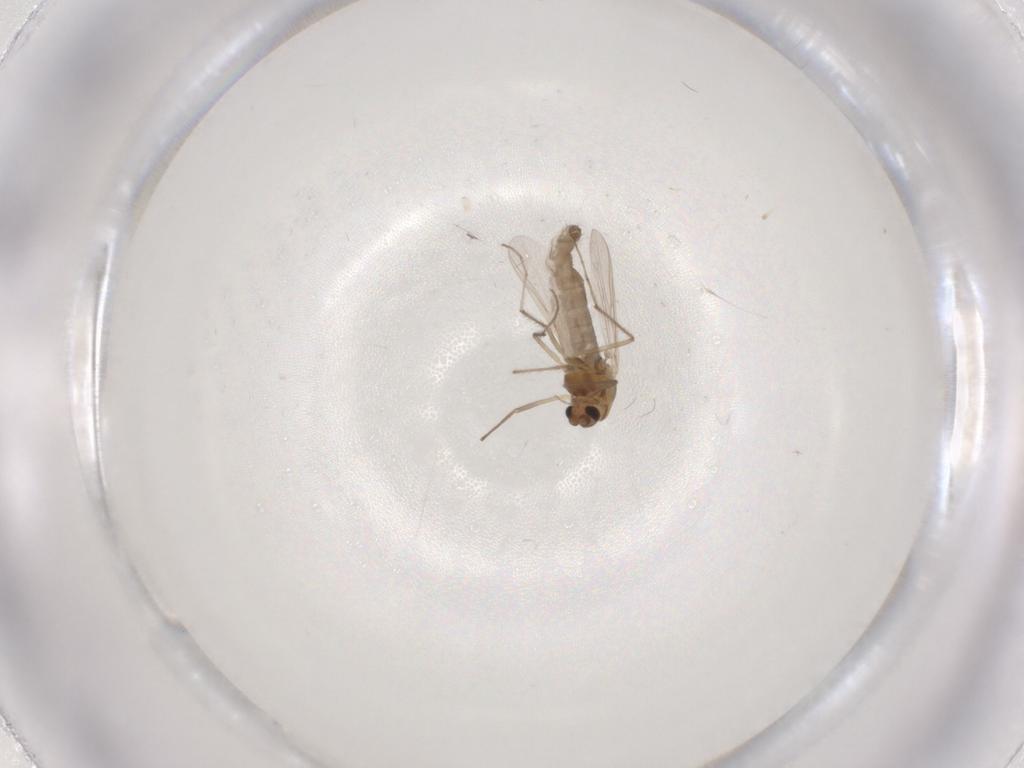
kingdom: Animalia
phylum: Arthropoda
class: Insecta
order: Diptera
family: Chironomidae
